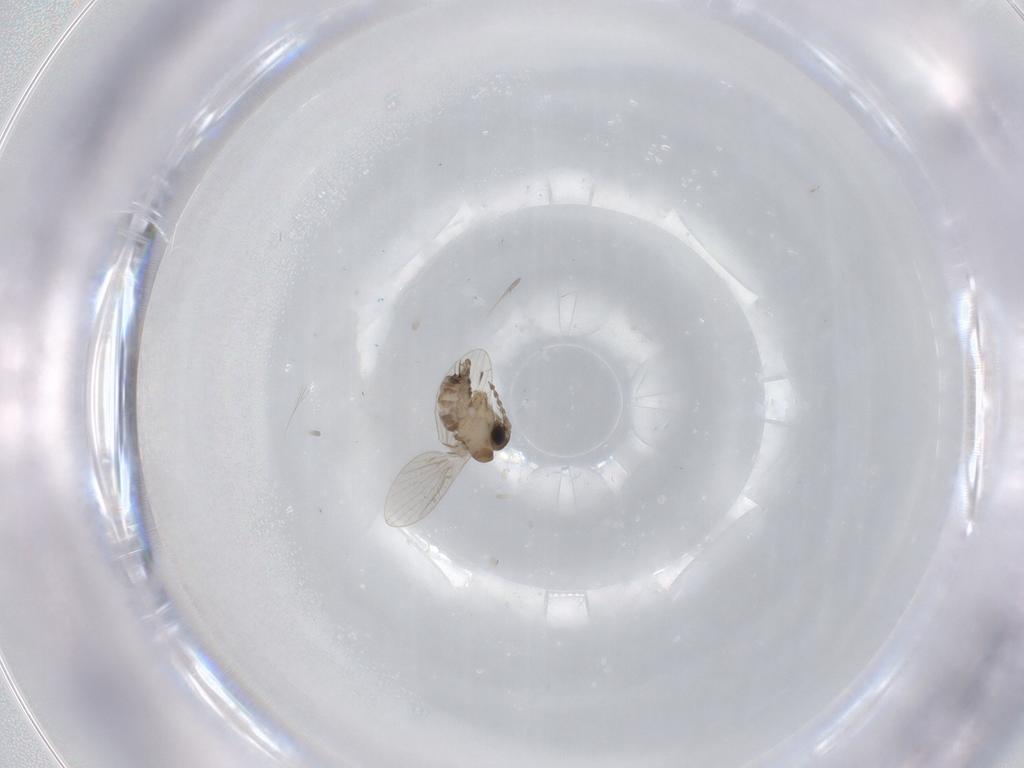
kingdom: Animalia
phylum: Arthropoda
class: Insecta
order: Diptera
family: Psychodidae
